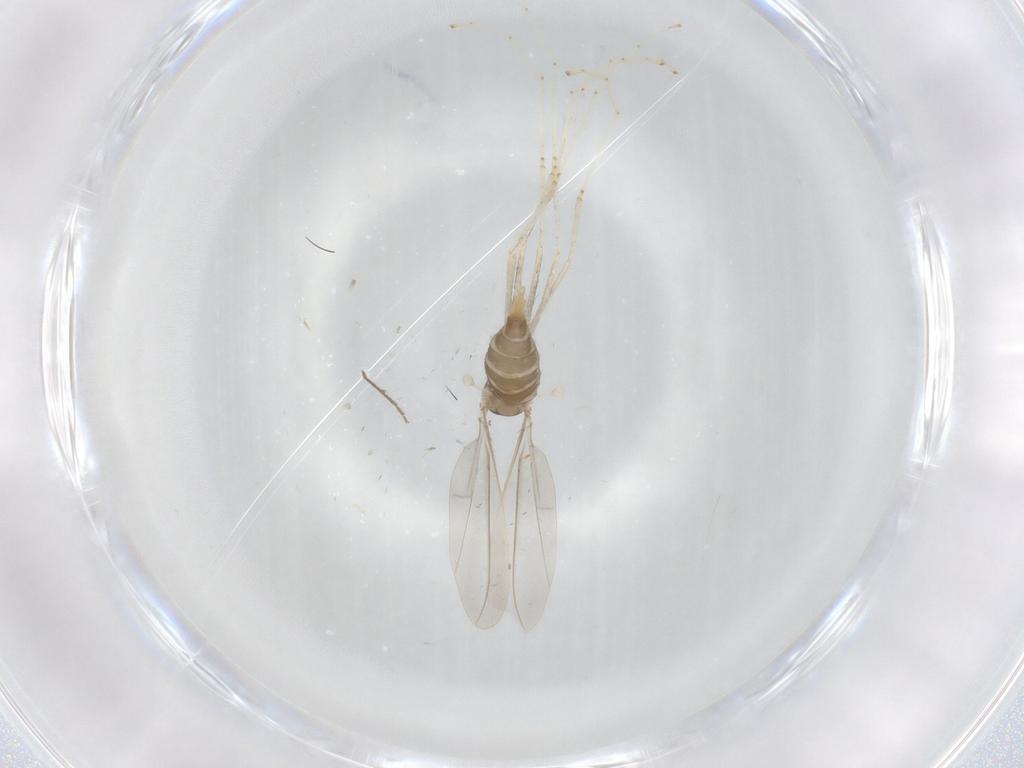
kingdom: Animalia
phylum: Arthropoda
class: Insecta
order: Diptera
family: Cecidomyiidae
